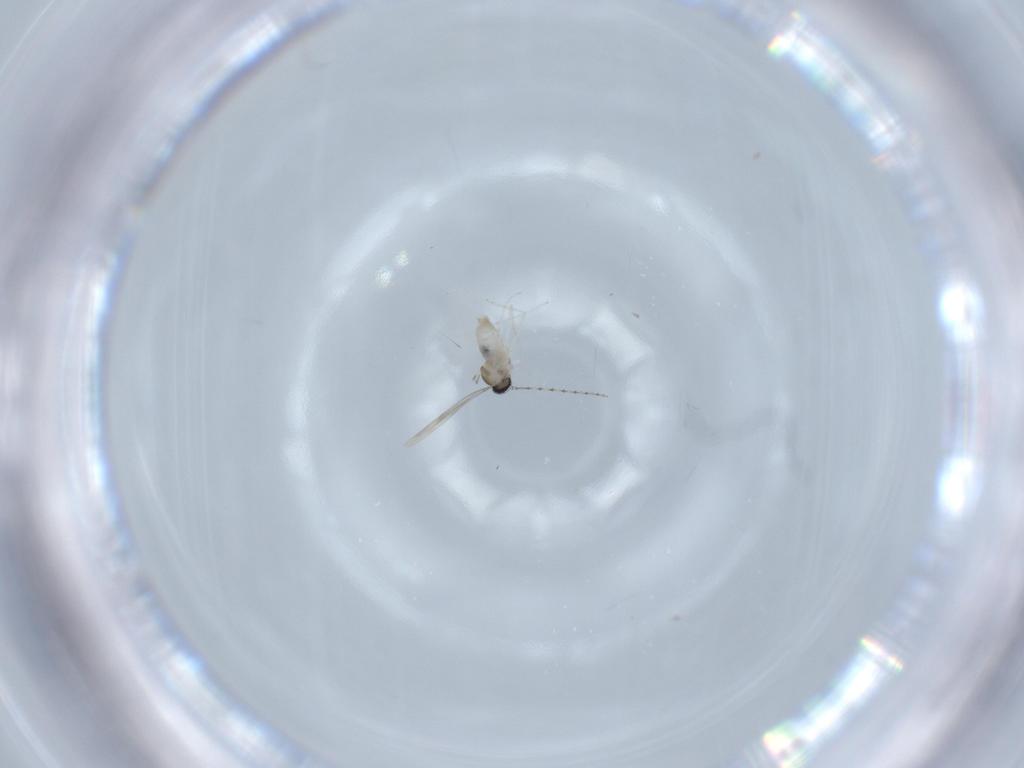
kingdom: Animalia
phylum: Arthropoda
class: Insecta
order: Diptera
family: Cecidomyiidae
